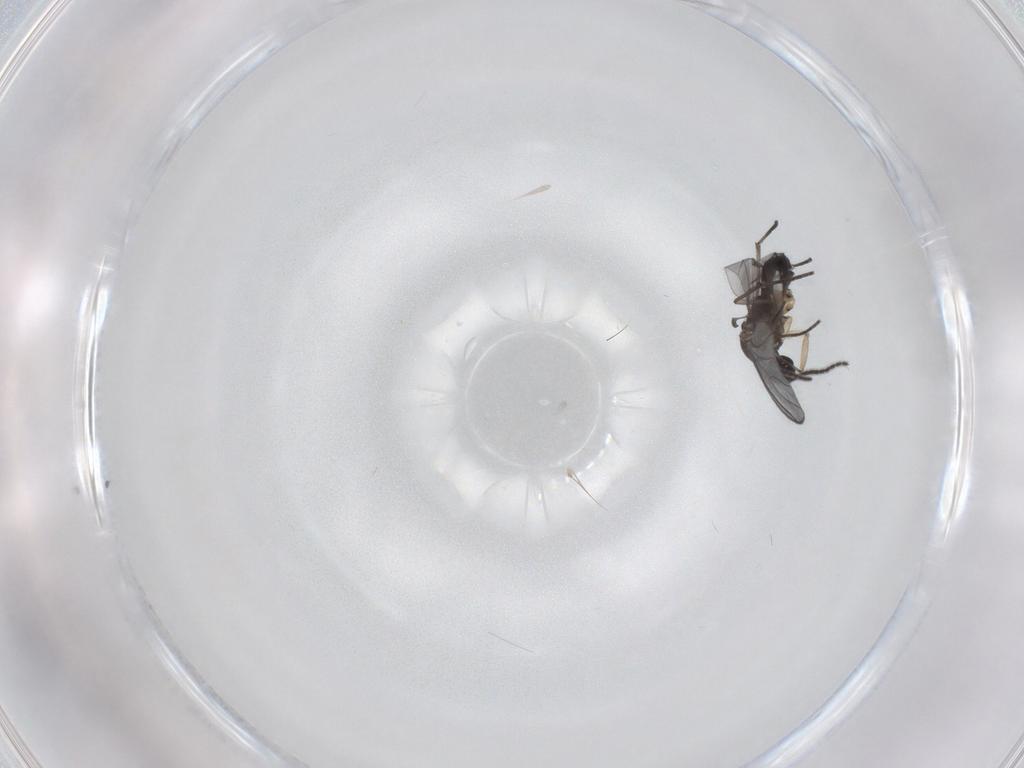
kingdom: Animalia
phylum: Arthropoda
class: Insecta
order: Diptera
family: Sciaridae
